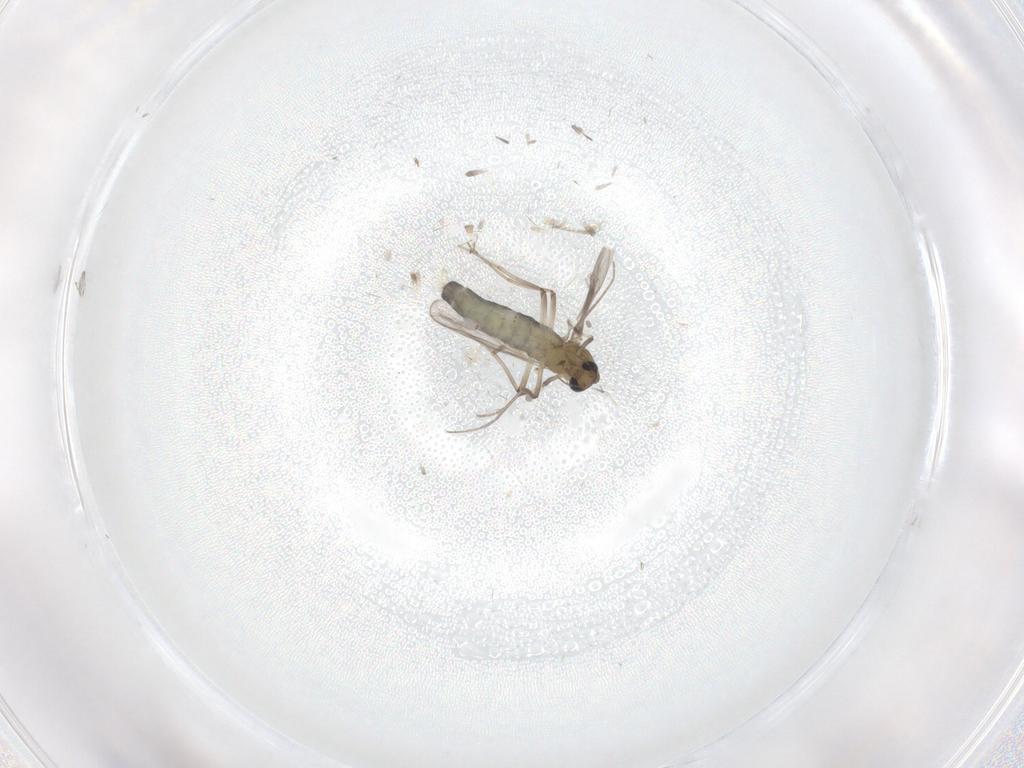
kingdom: Animalia
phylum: Arthropoda
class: Insecta
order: Diptera
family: Chironomidae
